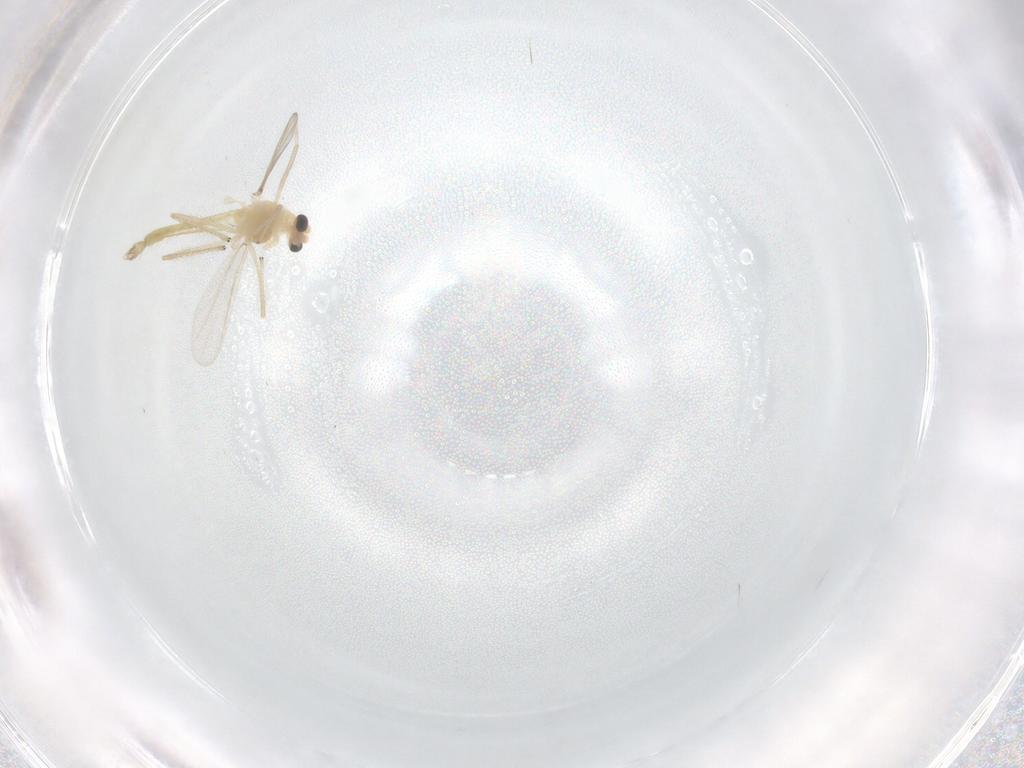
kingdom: Animalia
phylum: Arthropoda
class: Insecta
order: Diptera
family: Chironomidae
